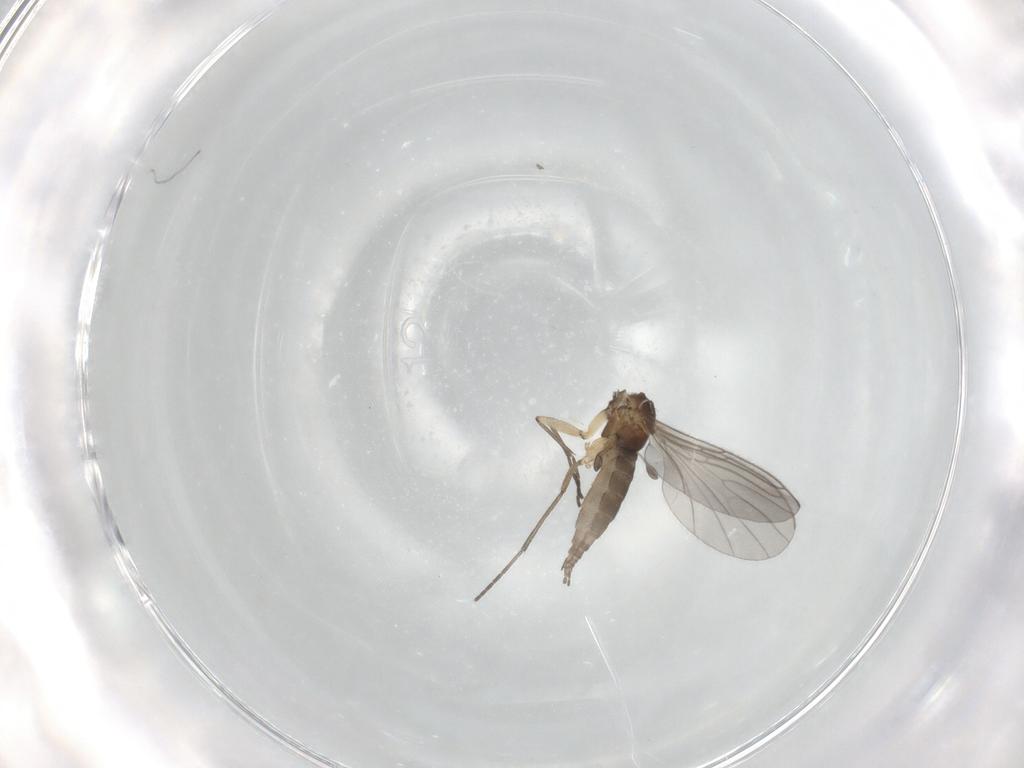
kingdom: Animalia
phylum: Arthropoda
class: Insecta
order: Diptera
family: Sciaridae
